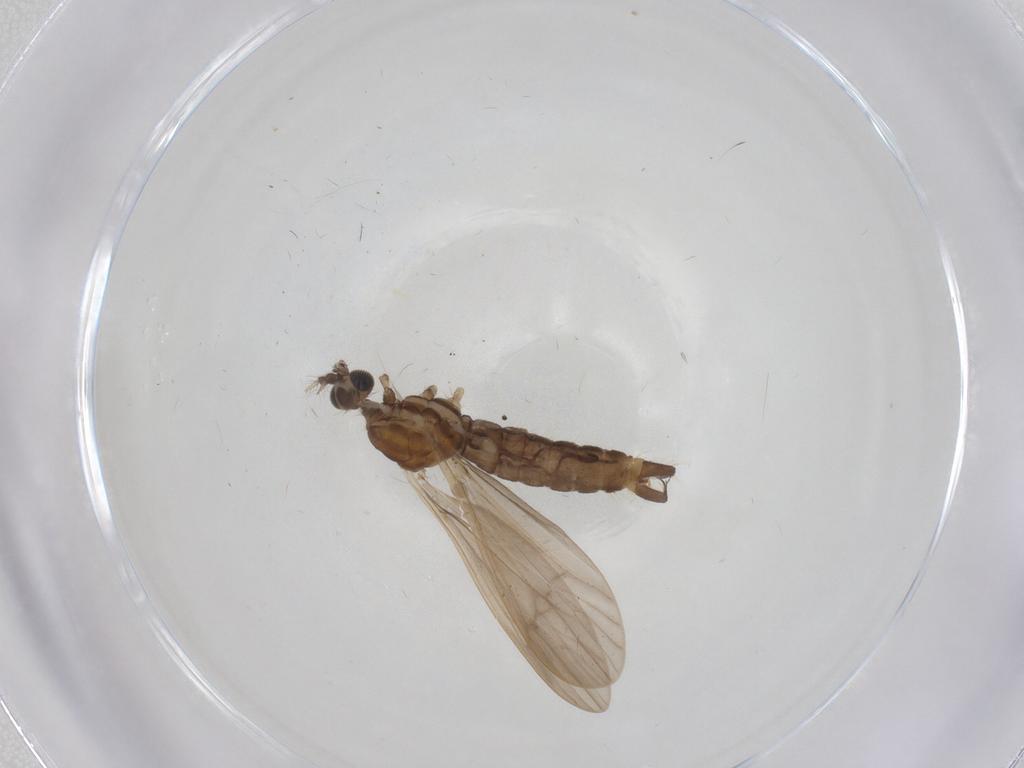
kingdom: Animalia
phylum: Arthropoda
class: Insecta
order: Diptera
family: Limoniidae
